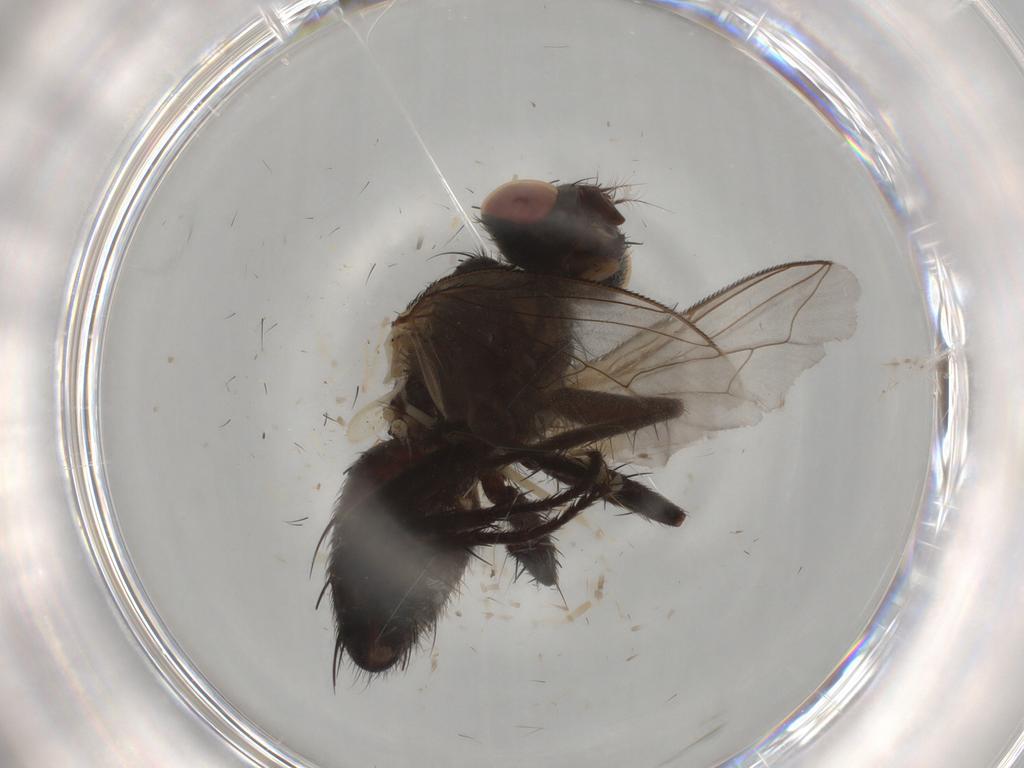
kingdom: Animalia
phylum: Arthropoda
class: Insecta
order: Diptera
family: Sarcophagidae
